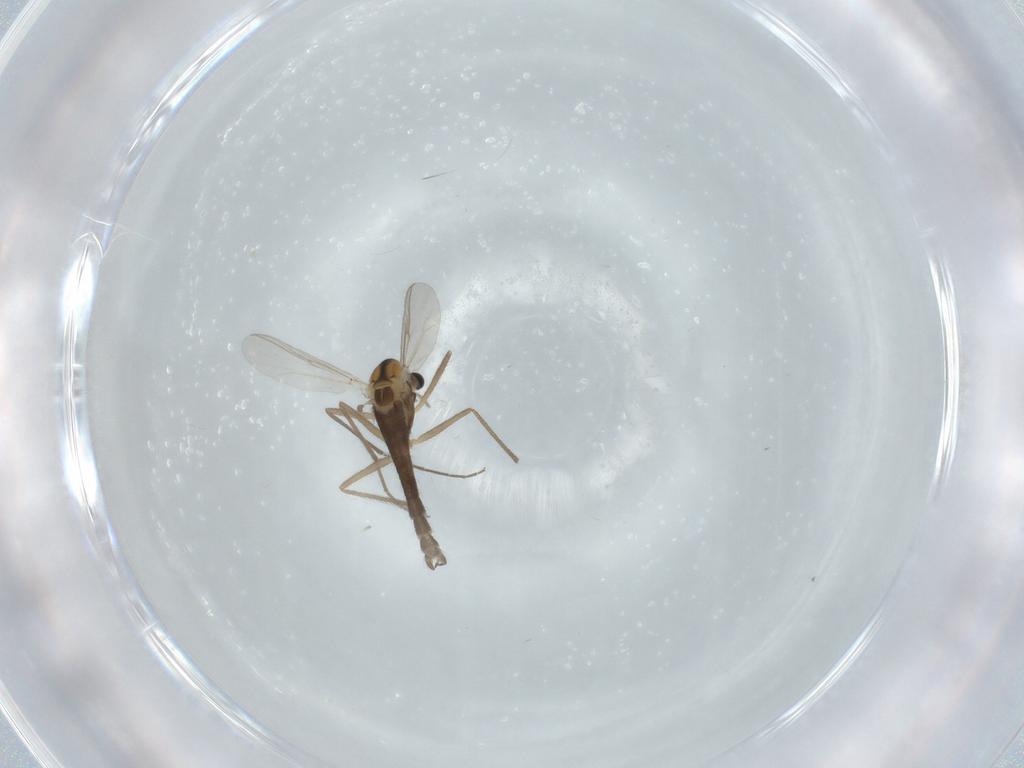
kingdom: Animalia
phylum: Arthropoda
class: Insecta
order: Diptera
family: Chironomidae
